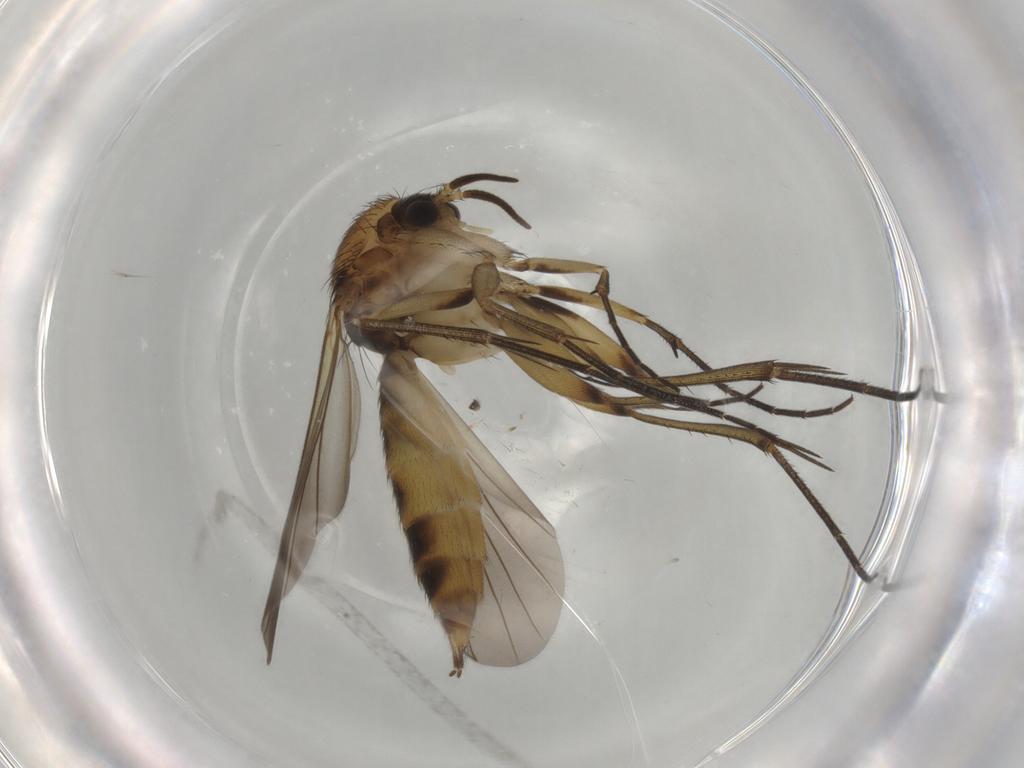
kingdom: Animalia
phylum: Arthropoda
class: Insecta
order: Diptera
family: Mycetophilidae
